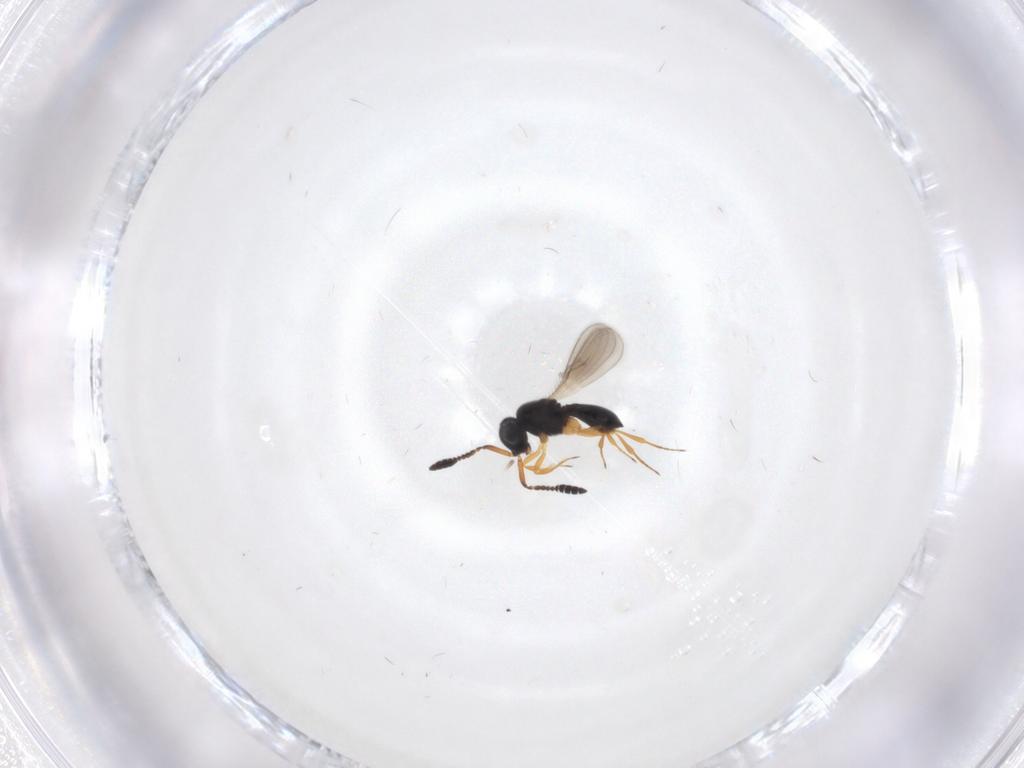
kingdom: Animalia
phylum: Arthropoda
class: Insecta
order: Hymenoptera
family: Scelionidae
